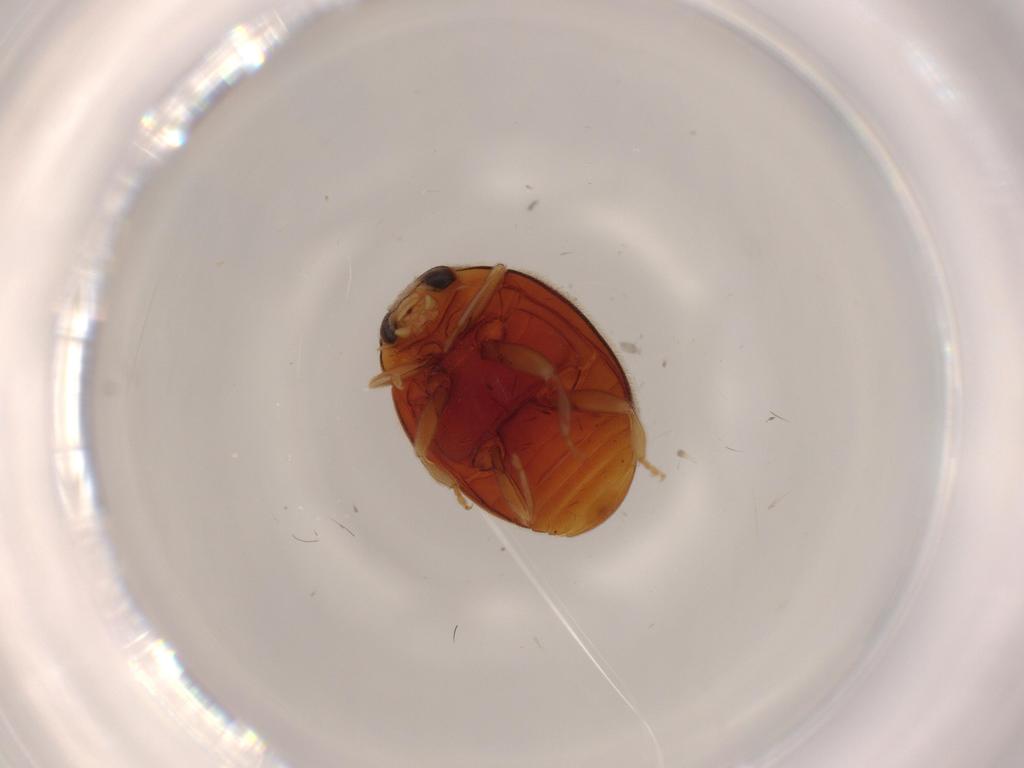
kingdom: Animalia
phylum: Arthropoda
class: Insecta
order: Coleoptera
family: Coccinellidae
